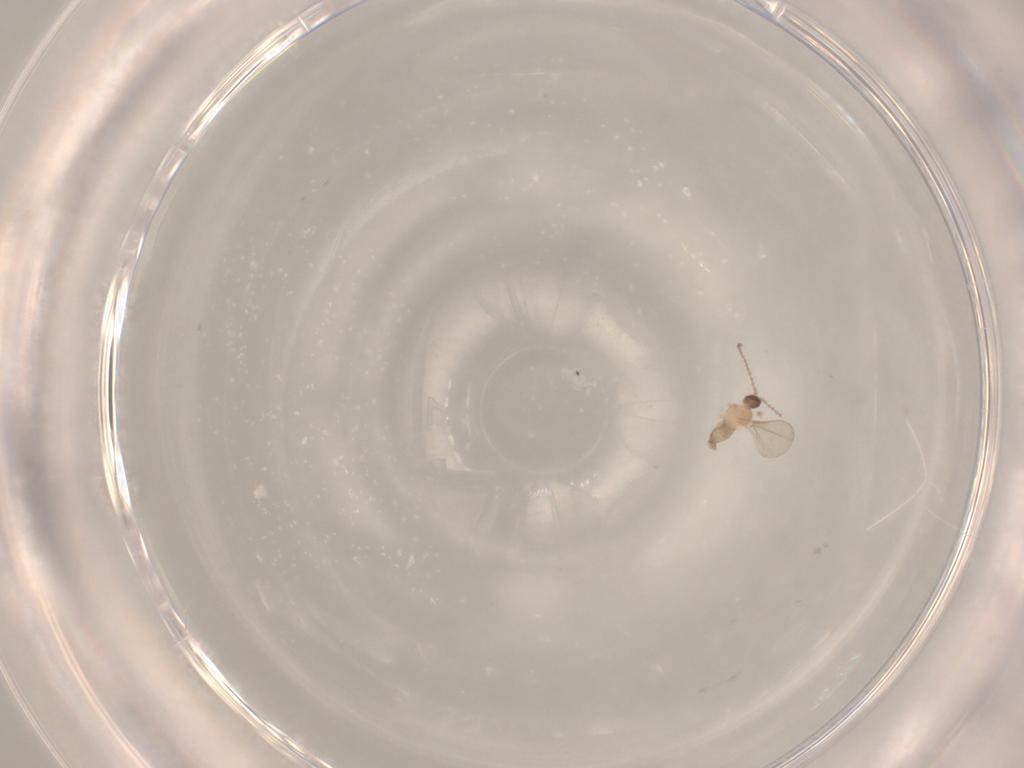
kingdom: Animalia
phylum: Arthropoda
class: Insecta
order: Diptera
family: Cecidomyiidae
